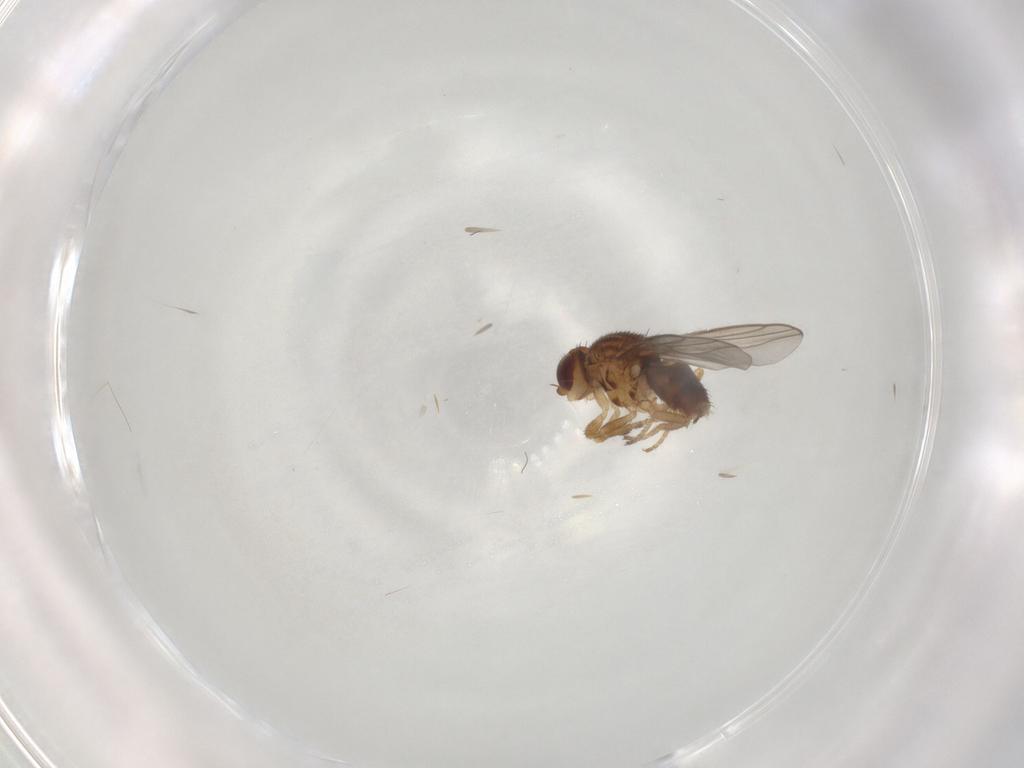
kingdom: Animalia
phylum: Arthropoda
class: Insecta
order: Diptera
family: Chloropidae
